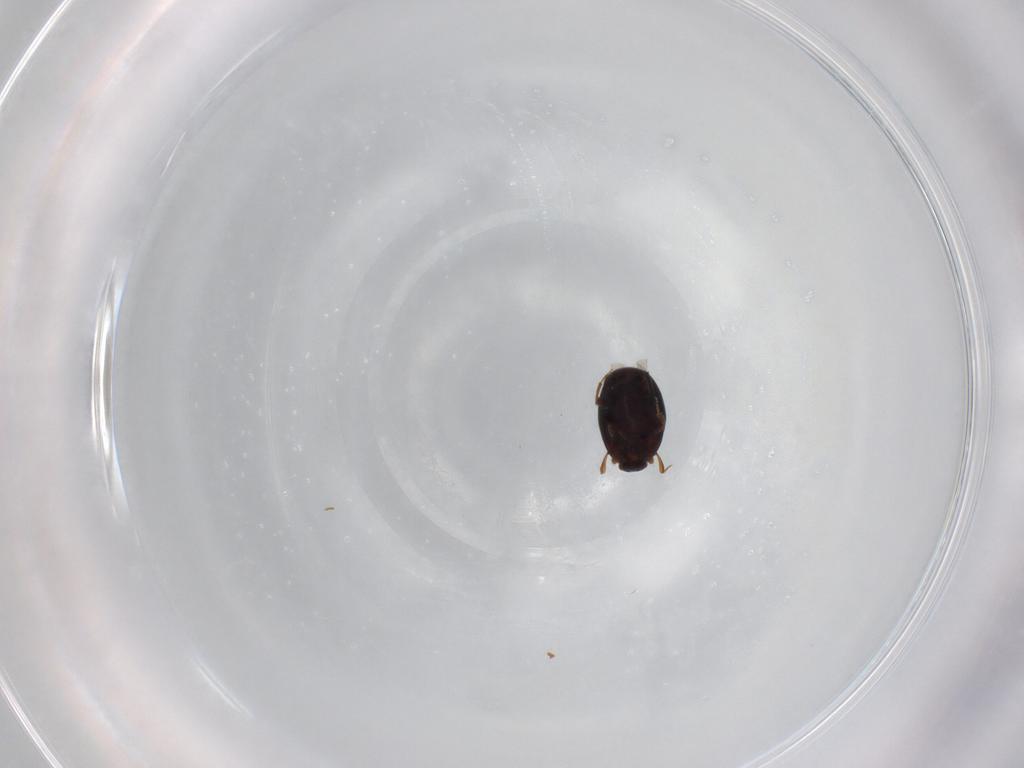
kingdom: Animalia
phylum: Arthropoda
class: Insecta
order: Coleoptera
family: Histeridae
